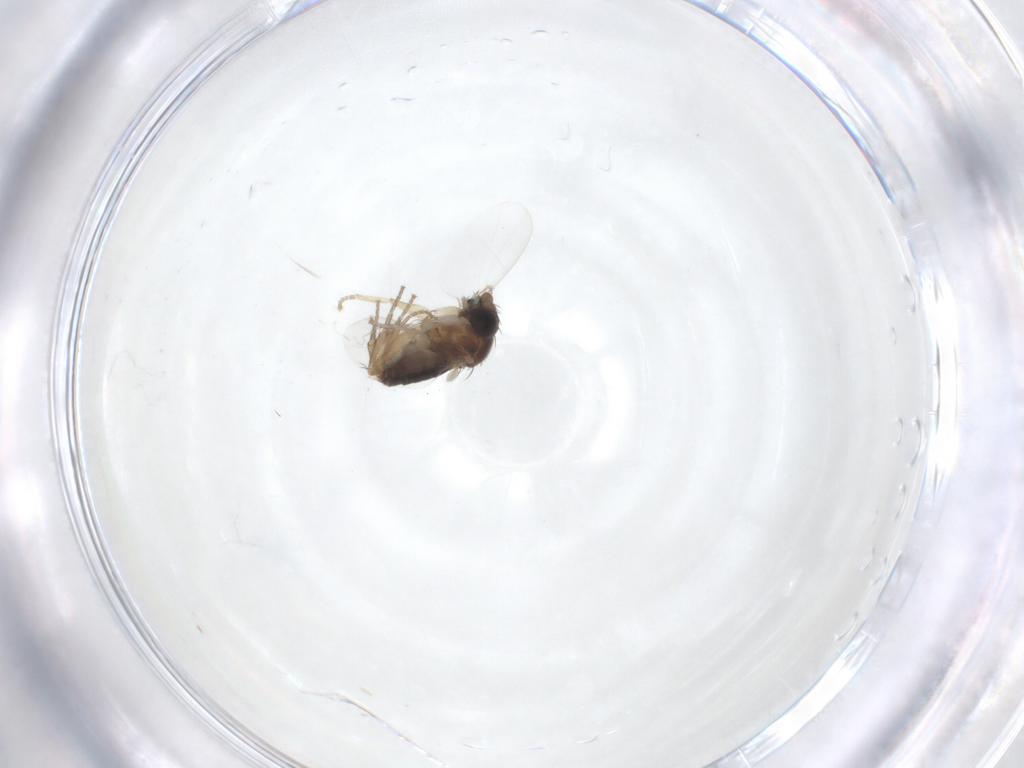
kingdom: Animalia
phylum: Arthropoda
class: Insecta
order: Diptera
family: Phoridae
